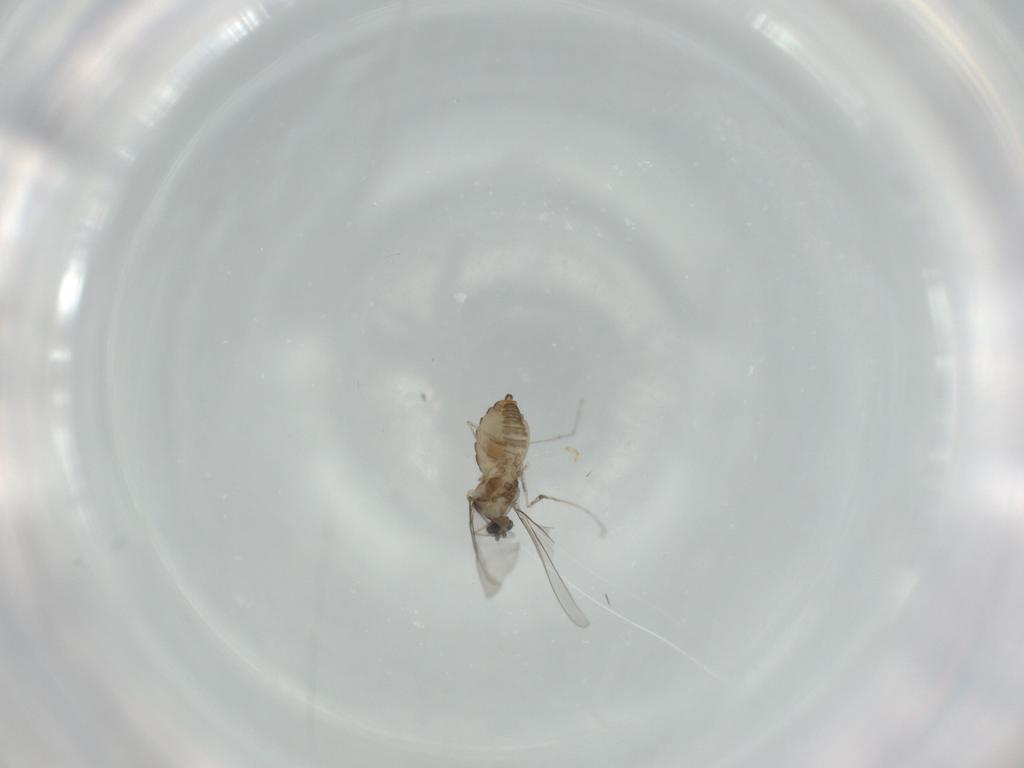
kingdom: Animalia
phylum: Arthropoda
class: Insecta
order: Diptera
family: Cecidomyiidae
